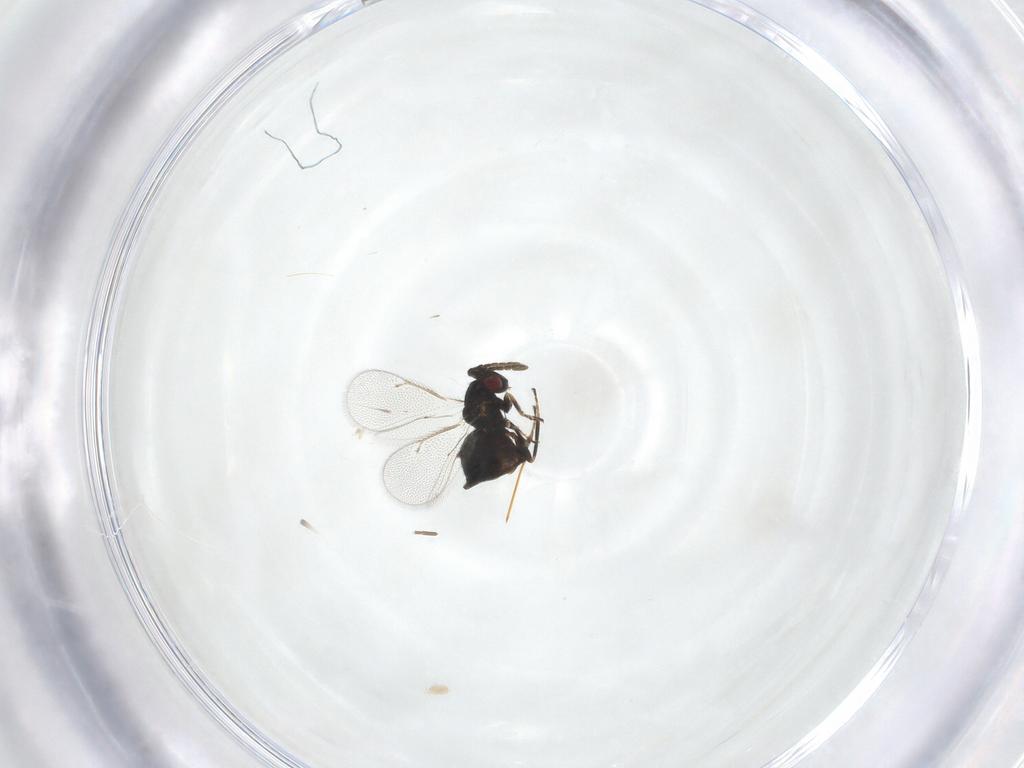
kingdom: Animalia
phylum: Arthropoda
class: Insecta
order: Hymenoptera
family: Eulophidae
